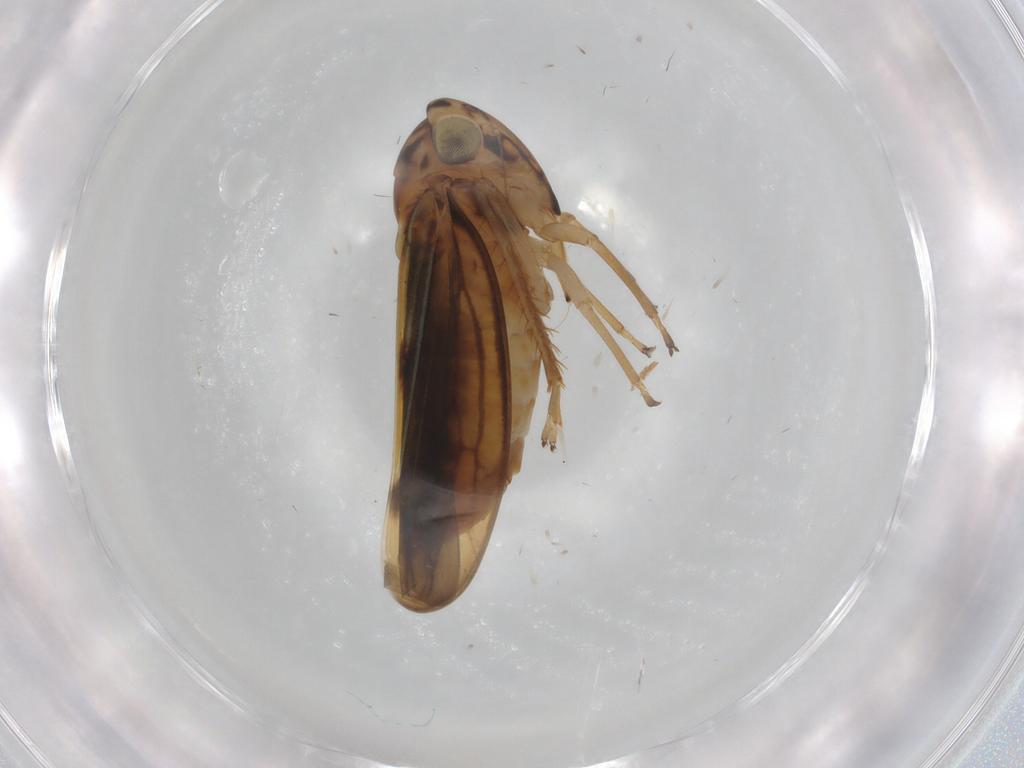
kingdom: Animalia
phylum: Arthropoda
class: Insecta
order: Hemiptera
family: Cicadellidae
